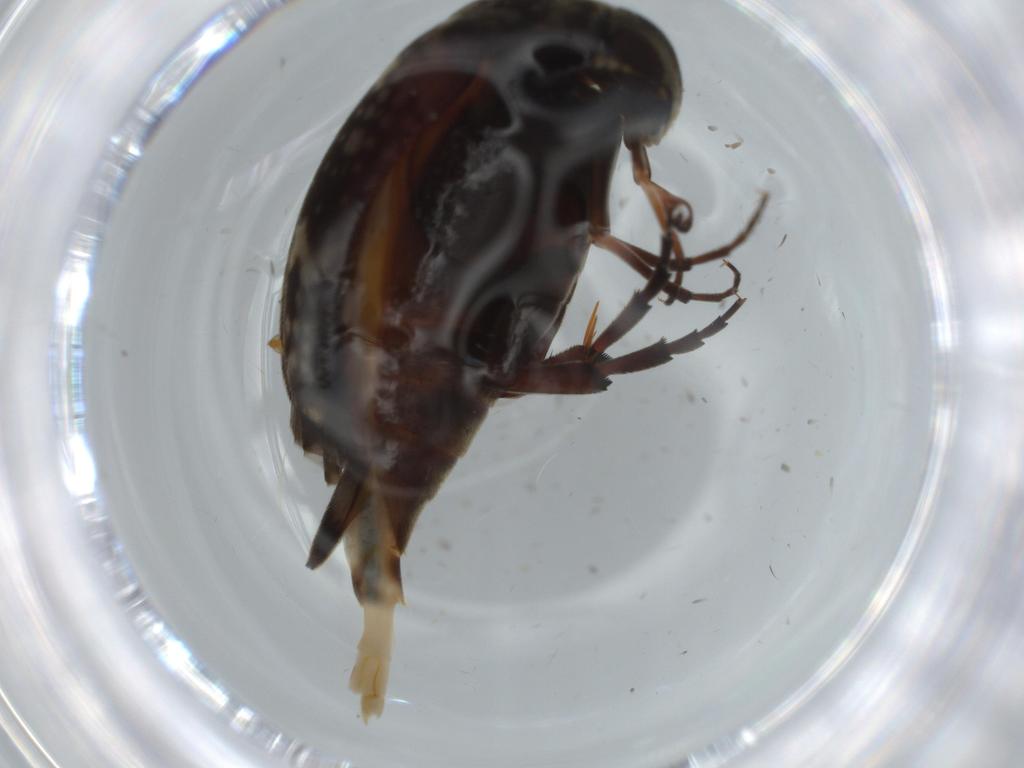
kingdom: Animalia
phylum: Arthropoda
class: Insecta
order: Coleoptera
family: Curculionidae
